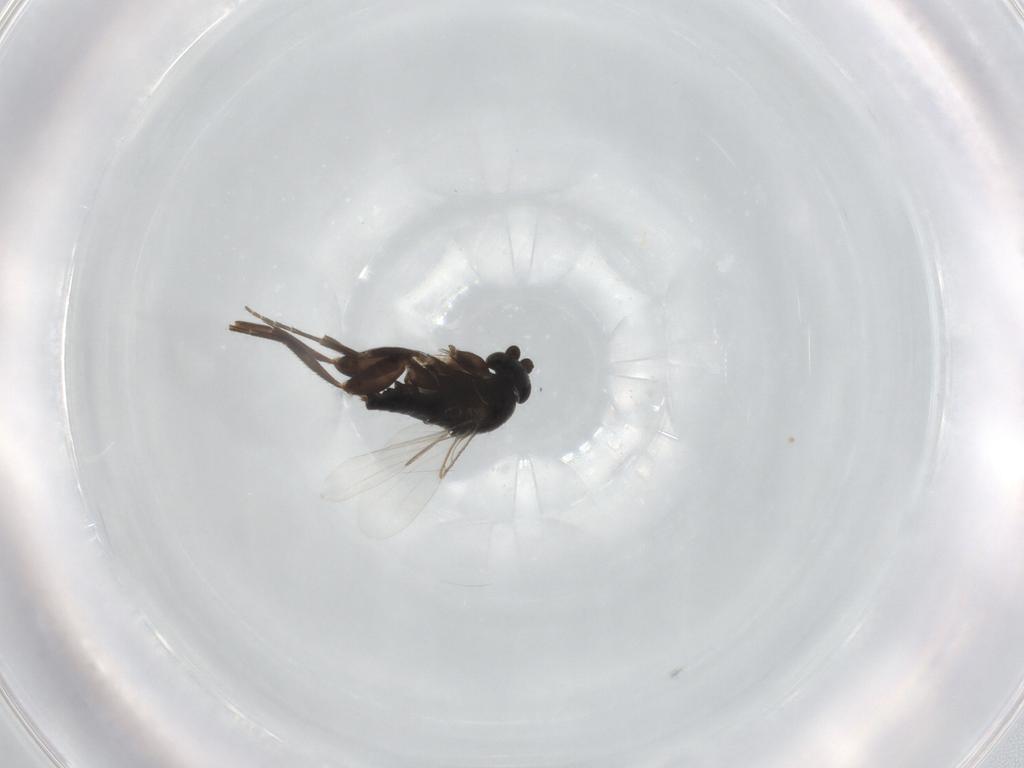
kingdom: Animalia
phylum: Arthropoda
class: Insecta
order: Diptera
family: Phoridae
